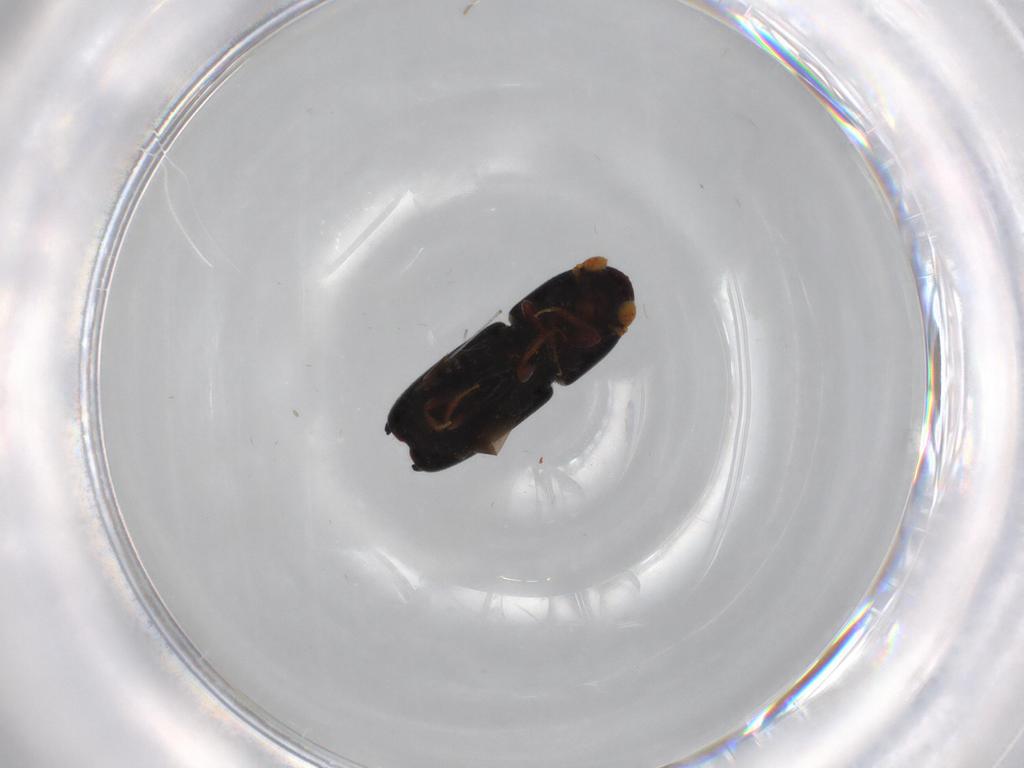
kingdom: Animalia
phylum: Arthropoda
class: Insecta
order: Coleoptera
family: Curculionidae
